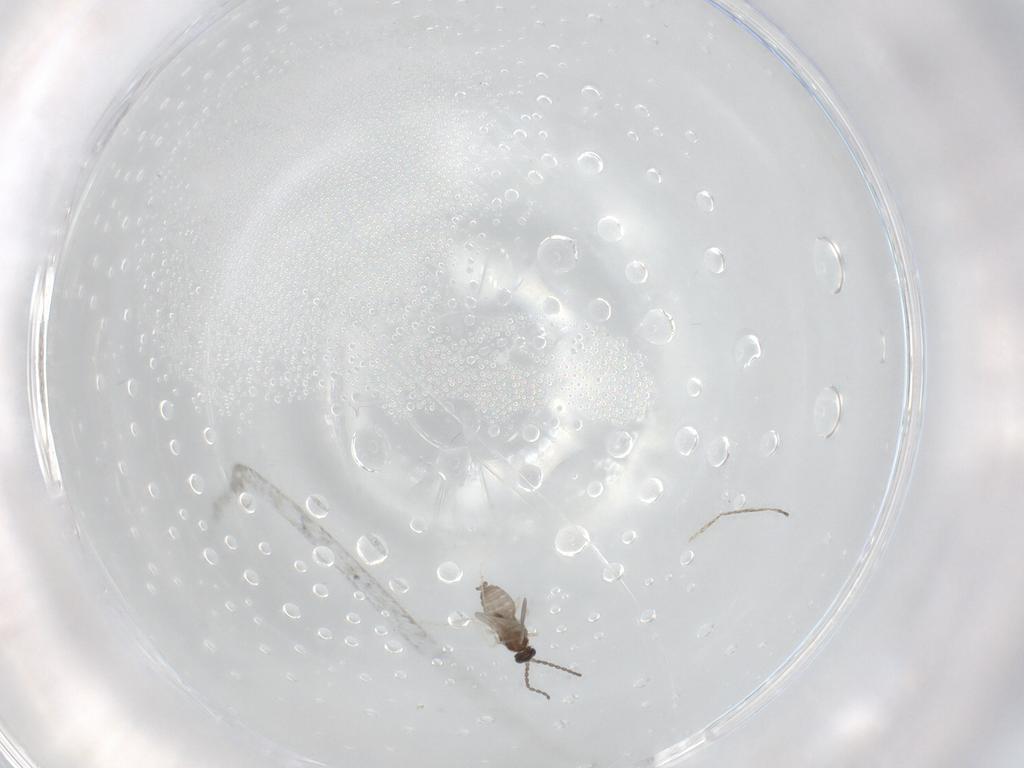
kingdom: Animalia
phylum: Arthropoda
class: Insecta
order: Diptera
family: Cecidomyiidae
